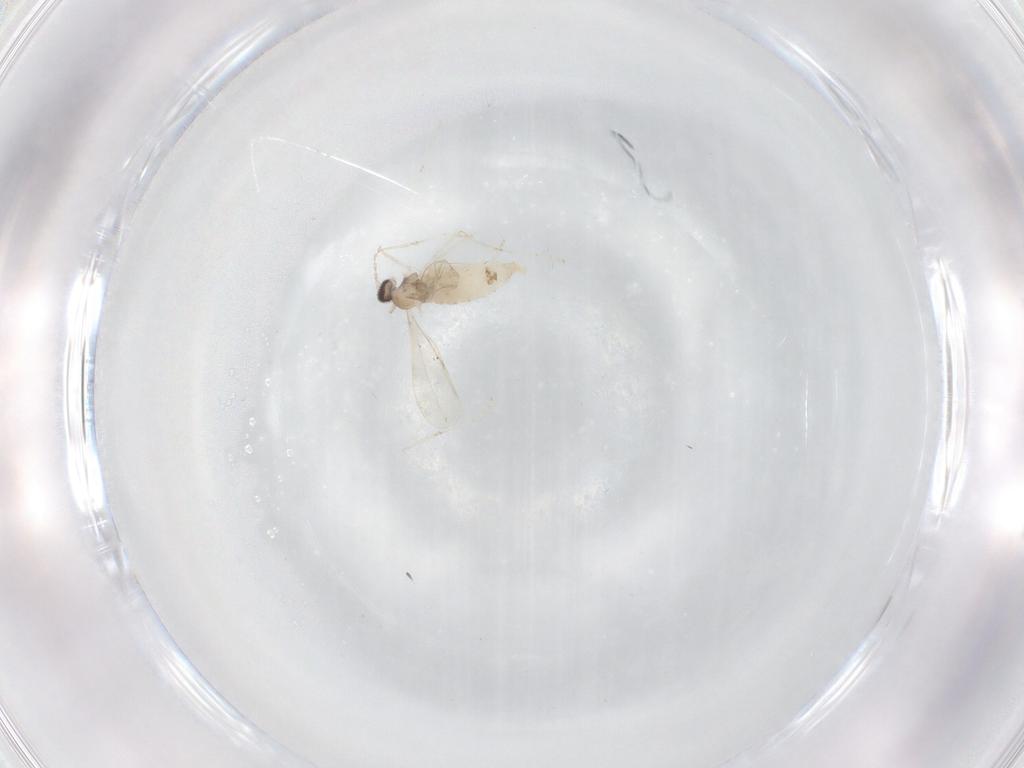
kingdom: Animalia
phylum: Arthropoda
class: Insecta
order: Diptera
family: Cecidomyiidae
